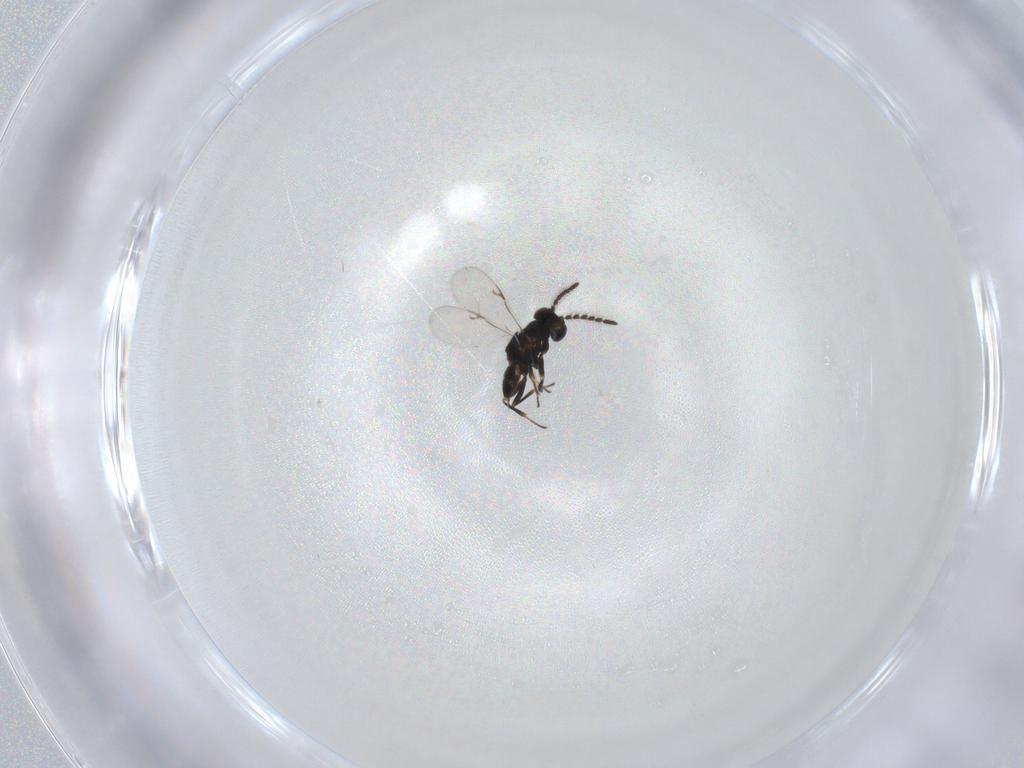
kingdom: Animalia
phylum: Arthropoda
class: Insecta
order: Hymenoptera
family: Encyrtidae
